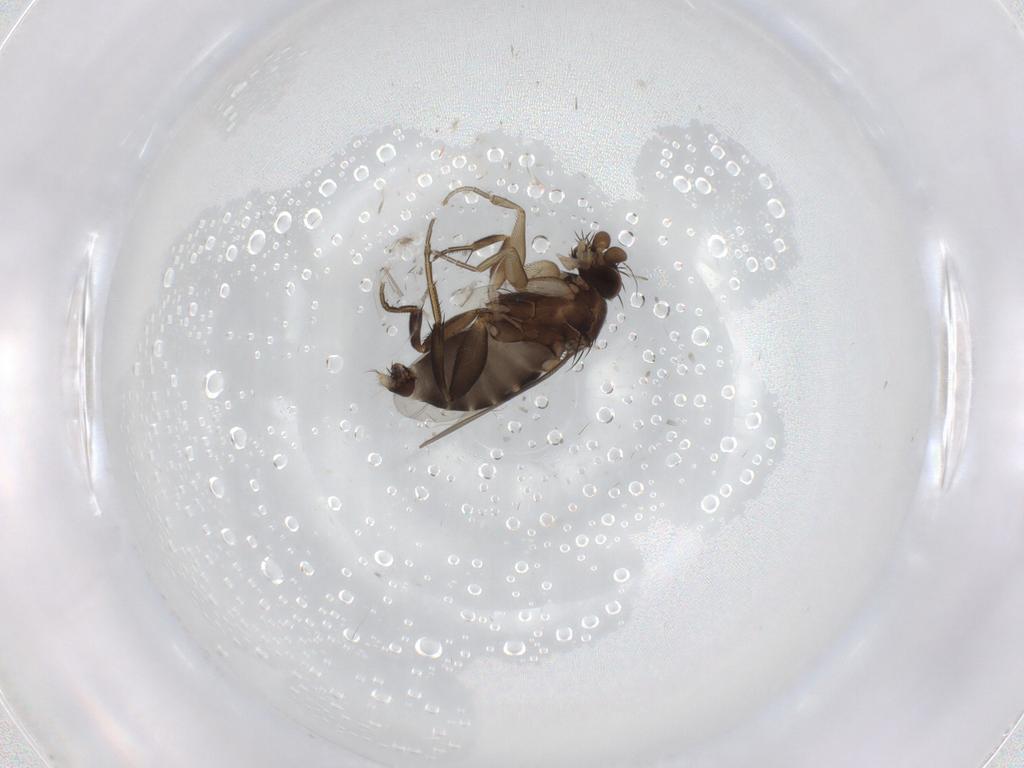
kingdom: Animalia
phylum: Arthropoda
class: Insecta
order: Diptera
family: Phoridae
